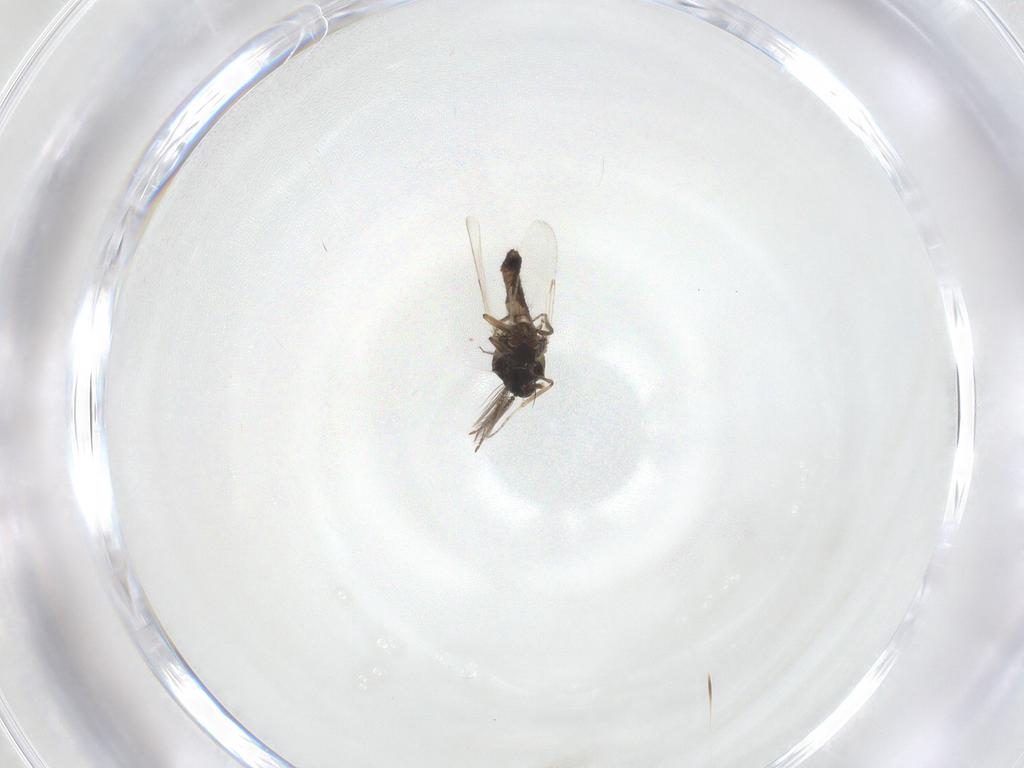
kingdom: Animalia
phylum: Arthropoda
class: Insecta
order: Diptera
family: Ceratopogonidae
